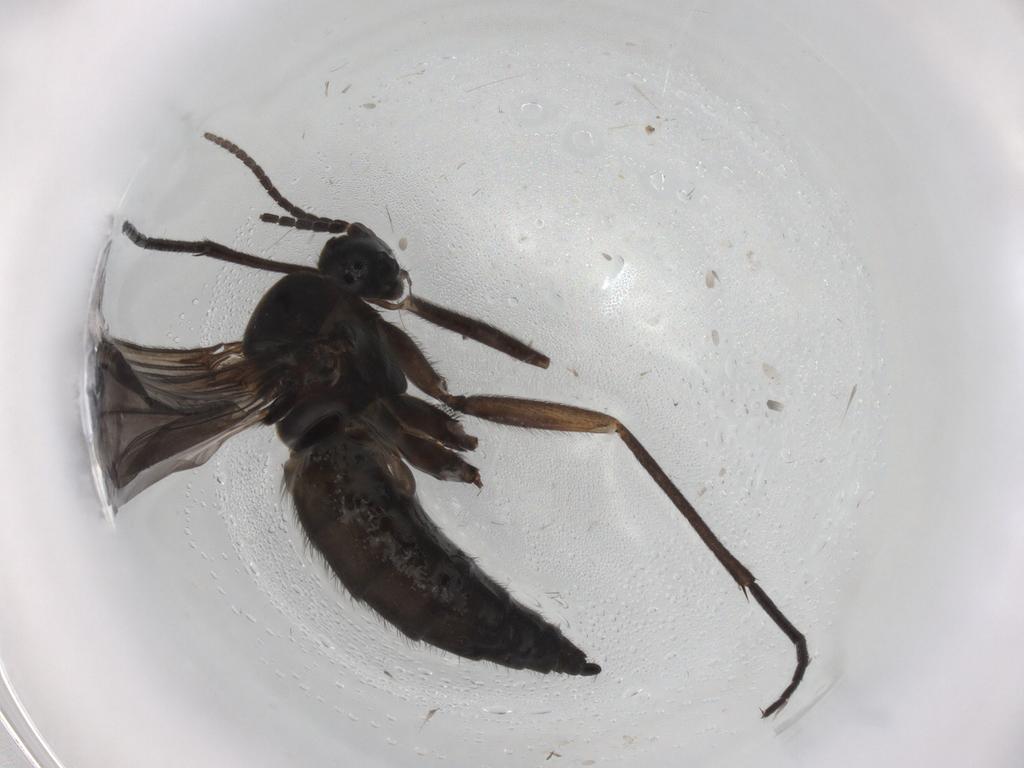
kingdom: Animalia
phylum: Arthropoda
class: Insecta
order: Diptera
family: Sciaridae
